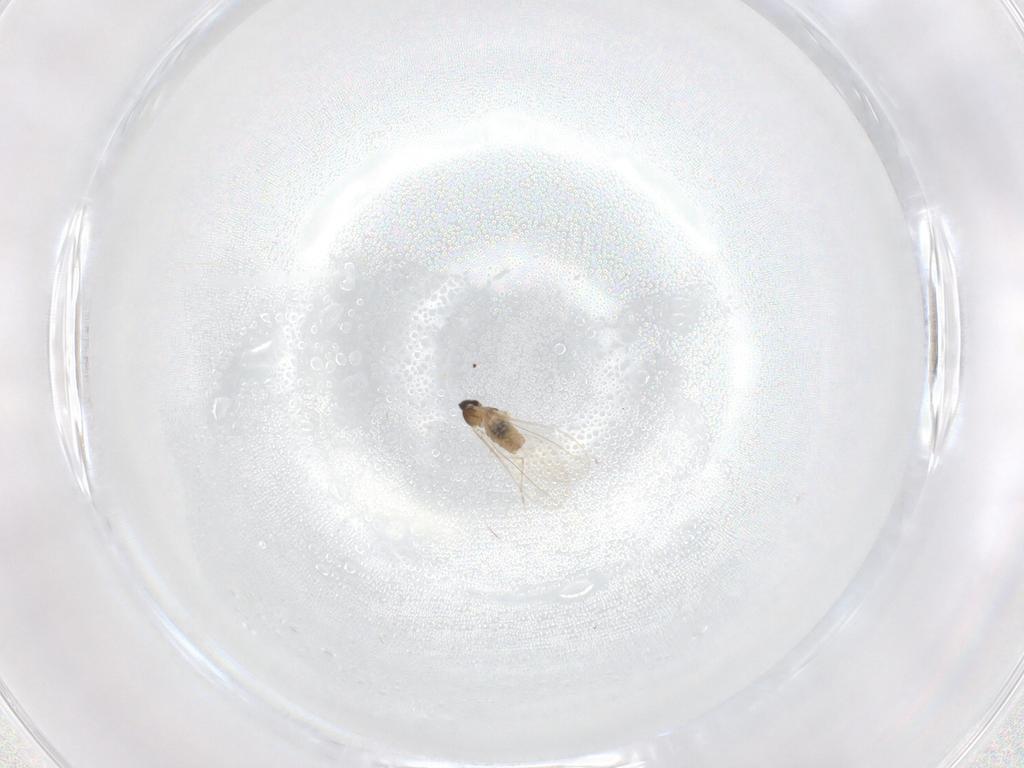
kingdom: Animalia
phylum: Arthropoda
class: Insecta
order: Diptera
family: Cecidomyiidae
